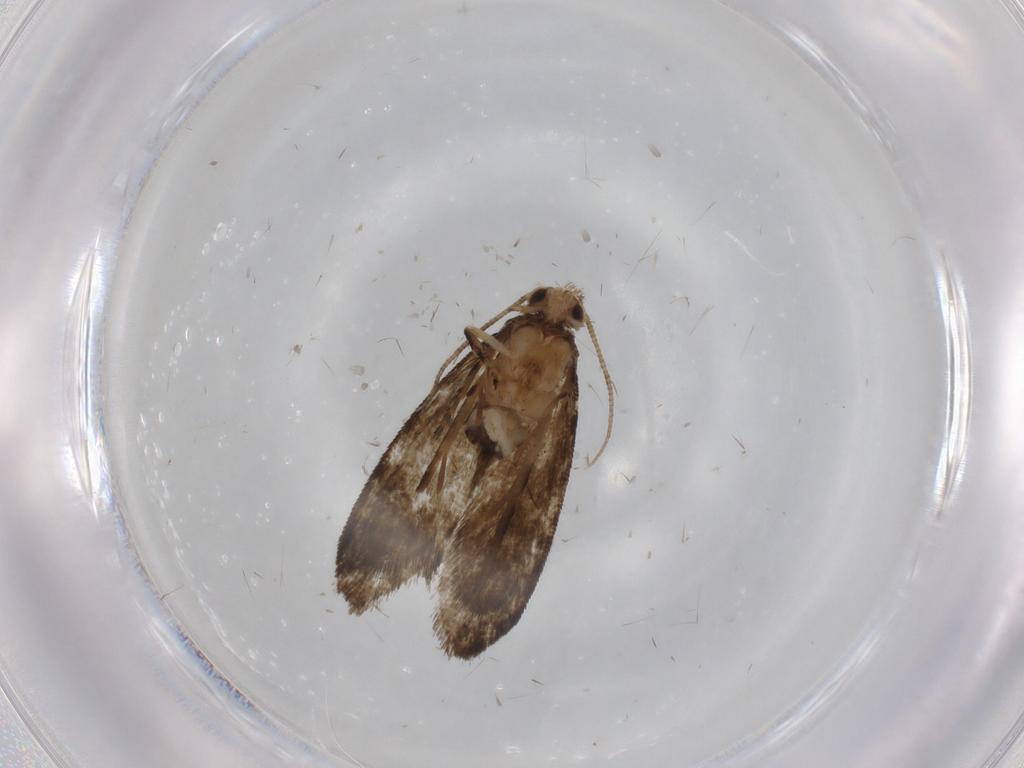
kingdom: Animalia
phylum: Arthropoda
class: Insecta
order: Lepidoptera
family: Crambidae
